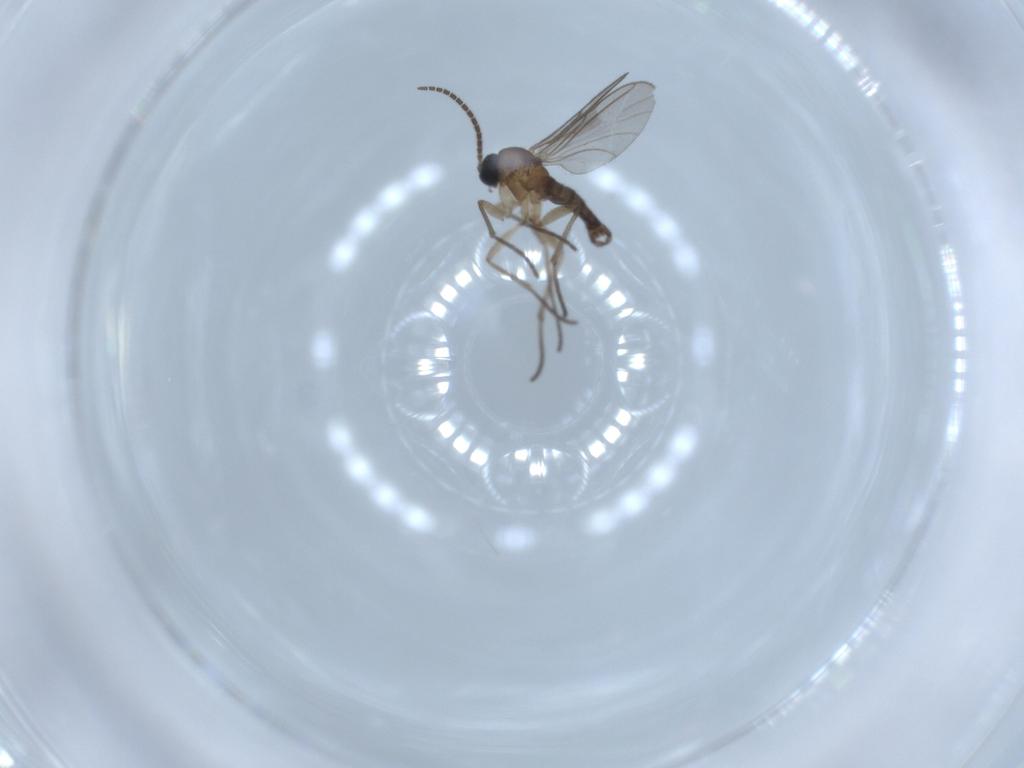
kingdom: Animalia
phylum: Arthropoda
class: Insecta
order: Diptera
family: Sciaridae
